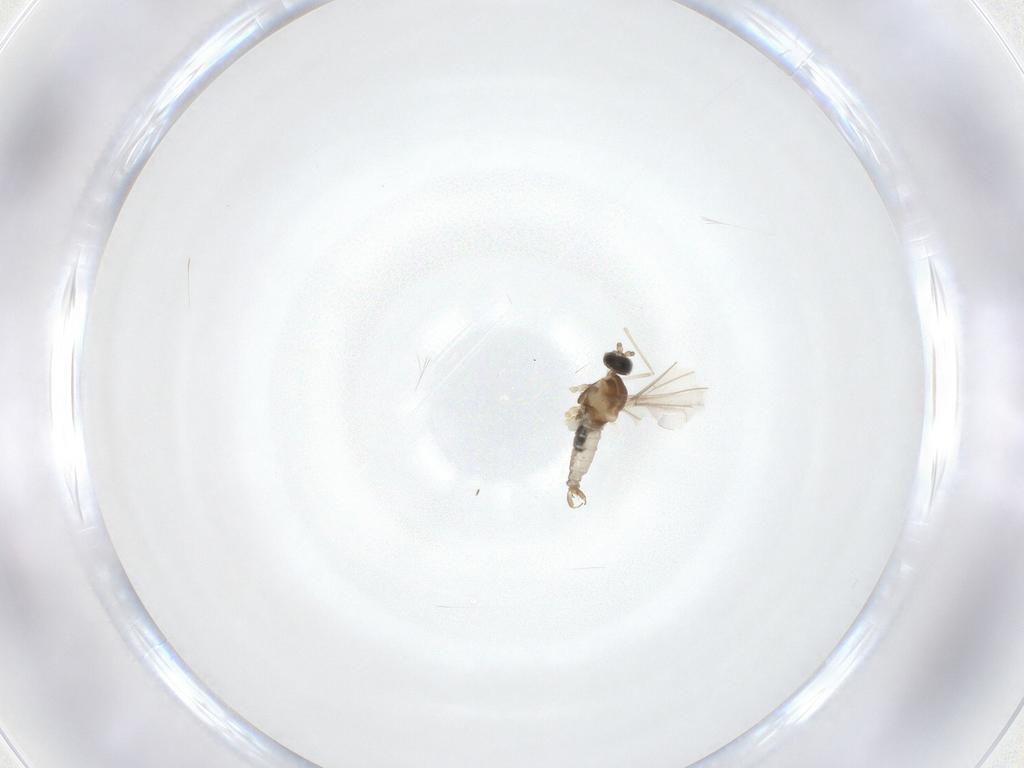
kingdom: Animalia
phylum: Arthropoda
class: Insecta
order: Diptera
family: Cecidomyiidae
